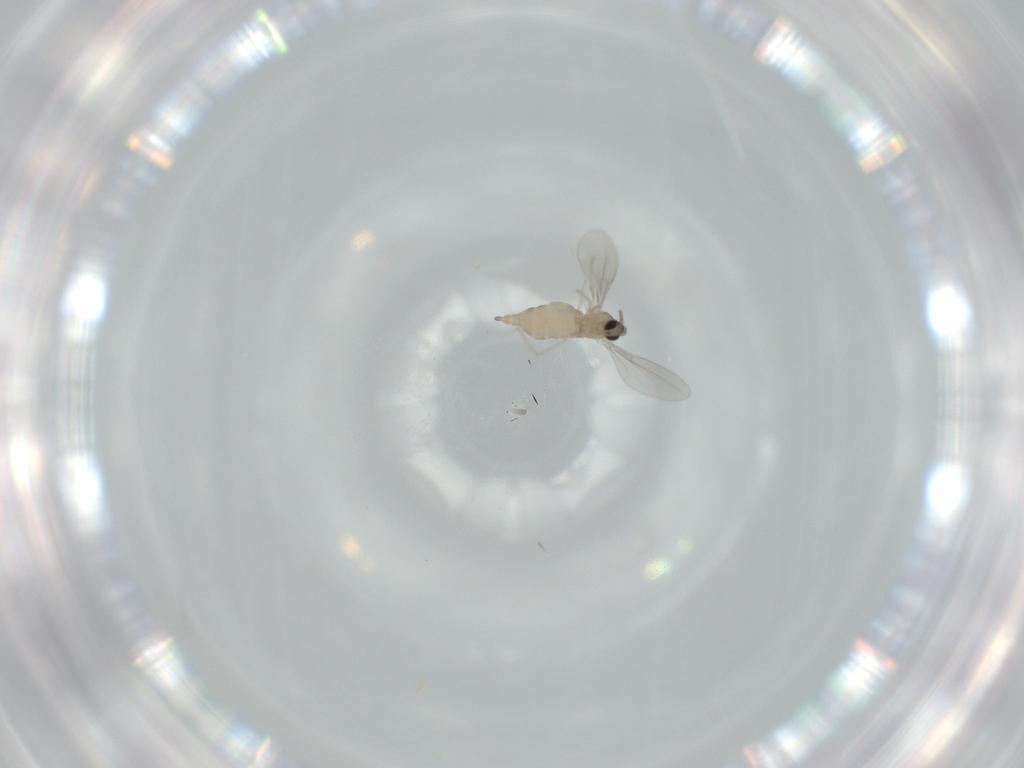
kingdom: Animalia
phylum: Arthropoda
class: Insecta
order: Diptera
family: Cecidomyiidae
